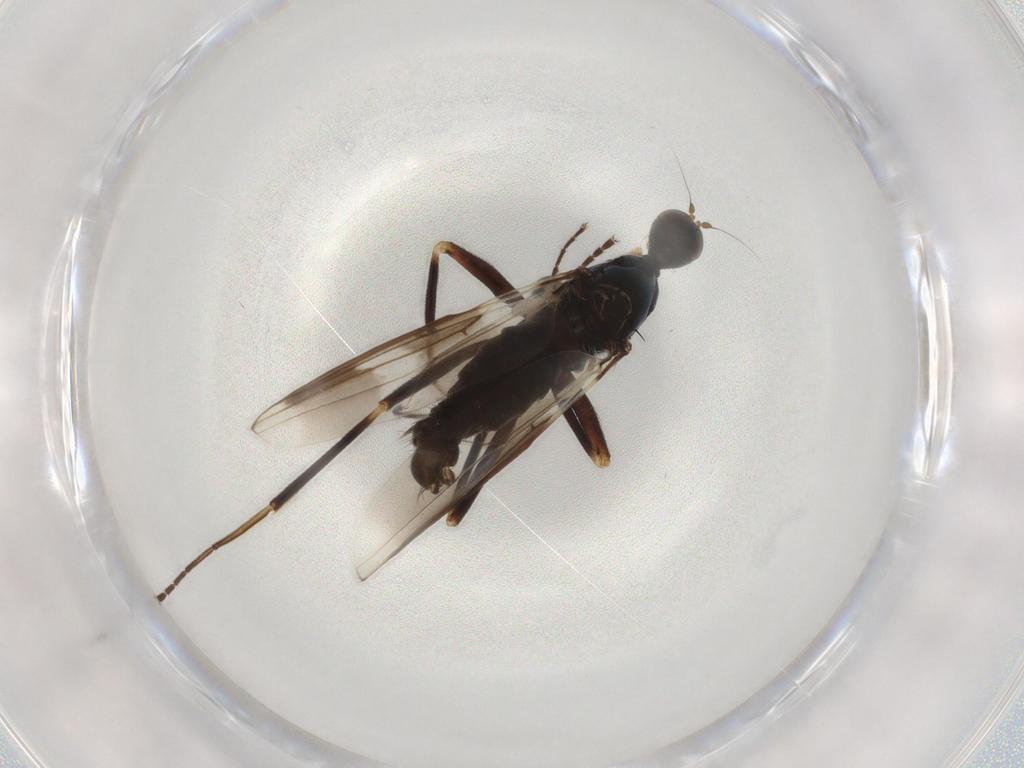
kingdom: Animalia
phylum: Arthropoda
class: Insecta
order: Diptera
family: Hybotidae
